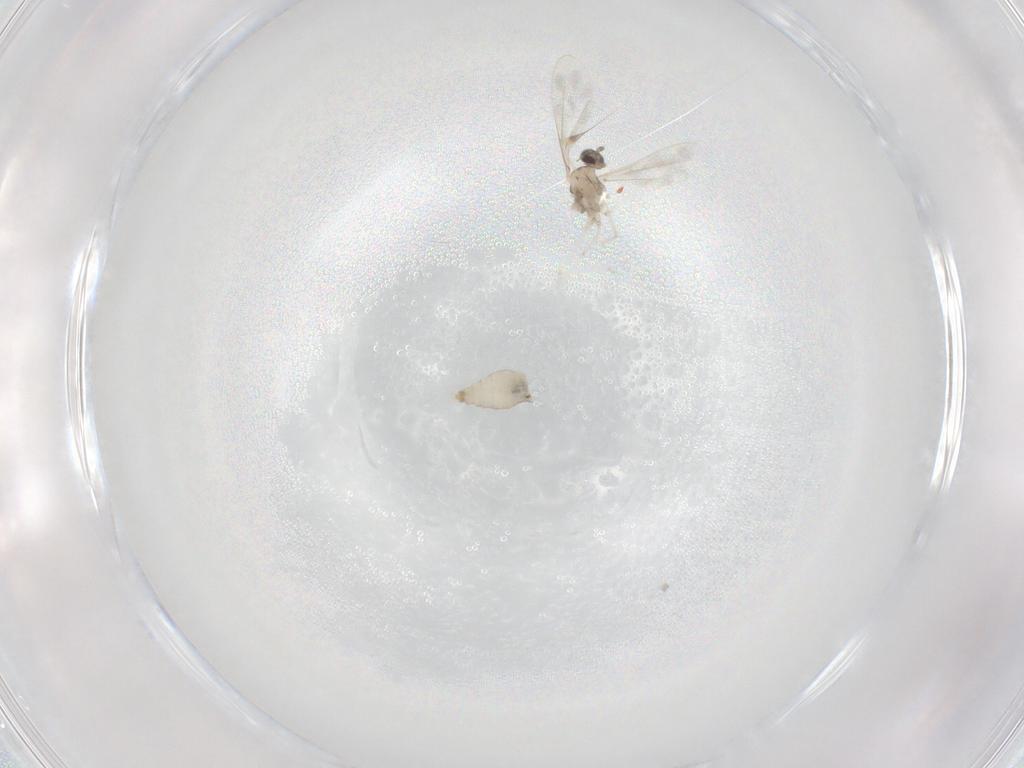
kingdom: Animalia
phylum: Arthropoda
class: Insecta
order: Diptera
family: Cecidomyiidae
